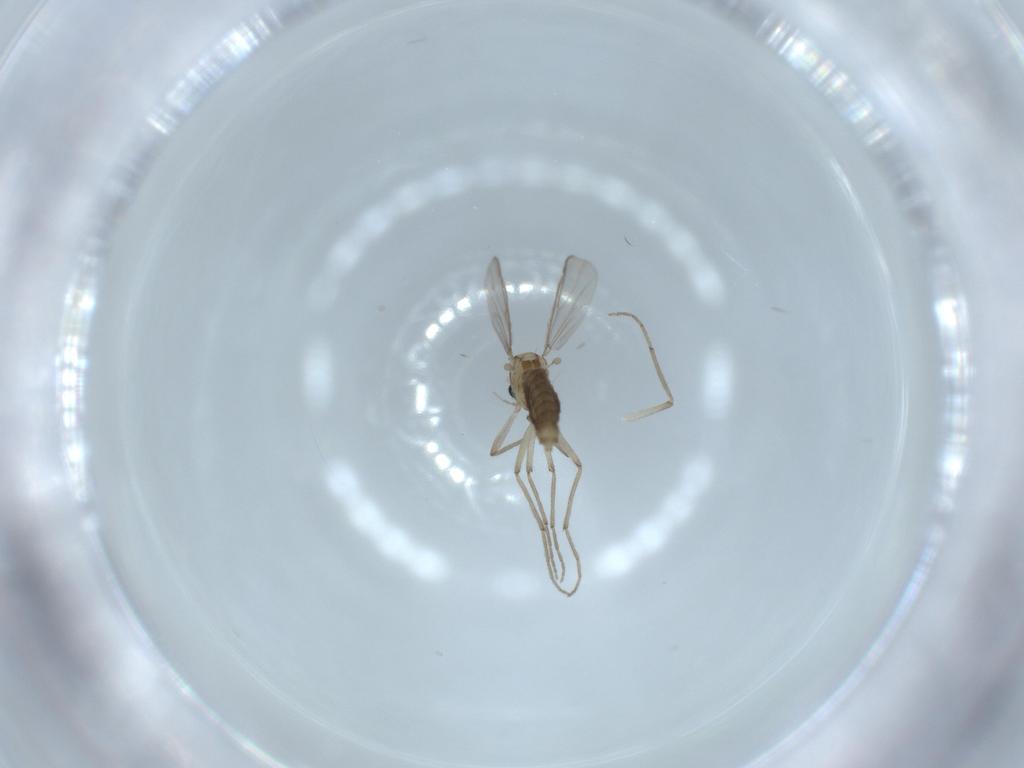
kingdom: Animalia
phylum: Arthropoda
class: Insecta
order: Diptera
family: Chironomidae
